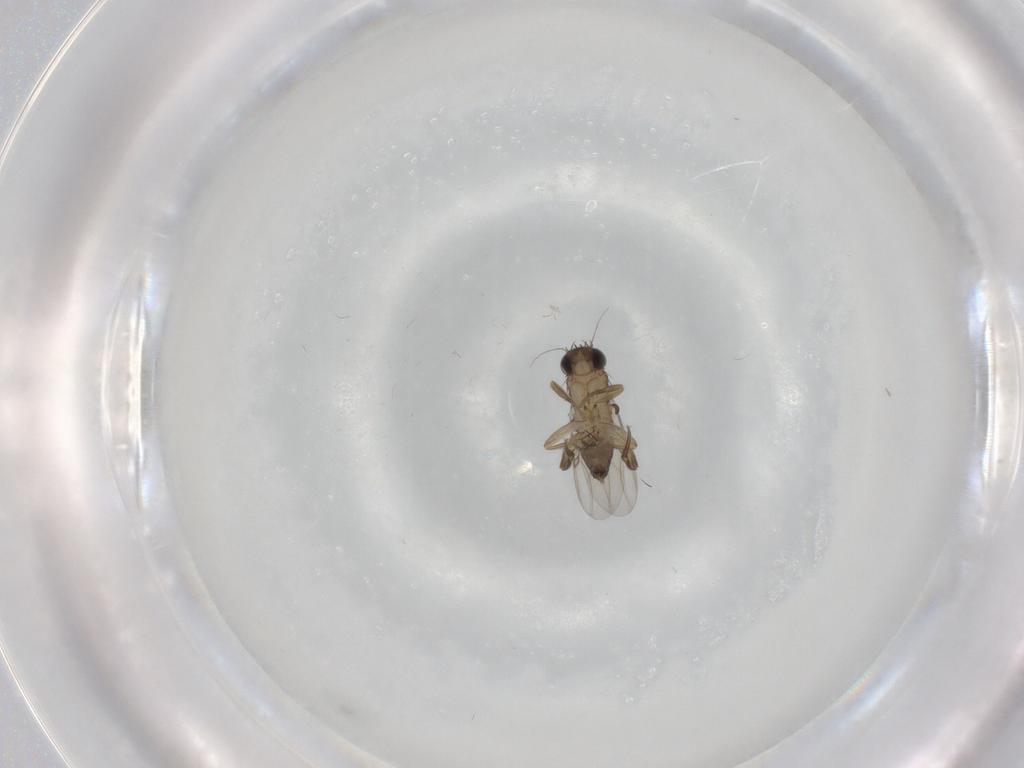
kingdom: Animalia
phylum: Arthropoda
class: Insecta
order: Diptera
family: Phoridae
